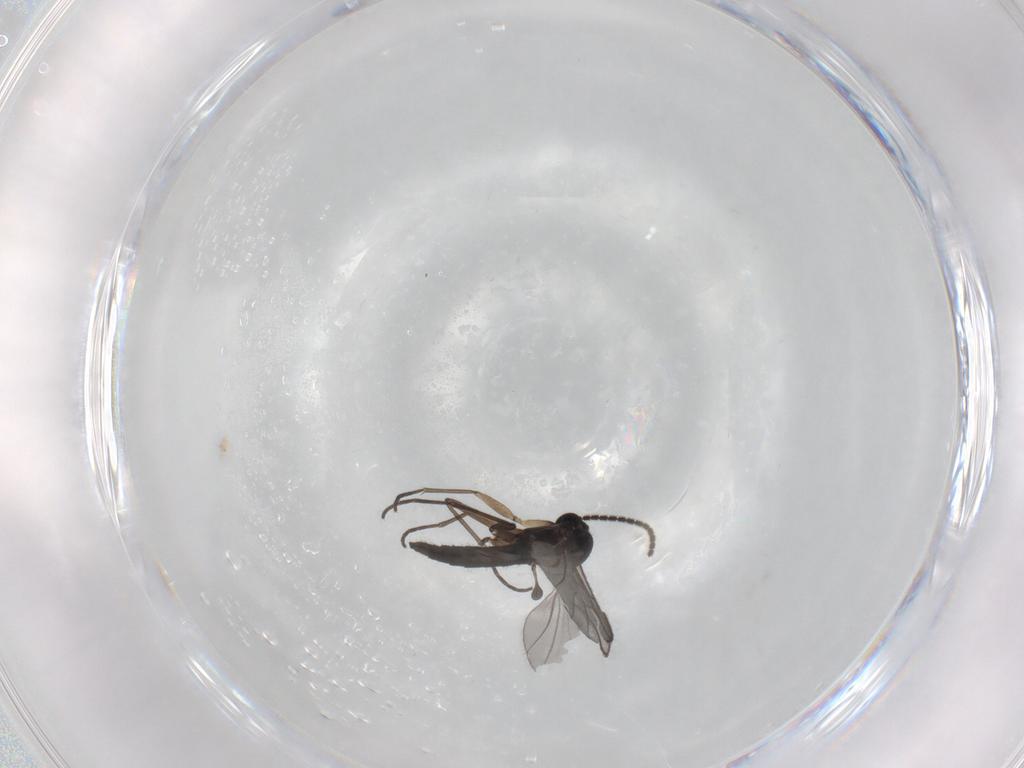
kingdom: Animalia
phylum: Arthropoda
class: Insecta
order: Diptera
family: Sciaridae
